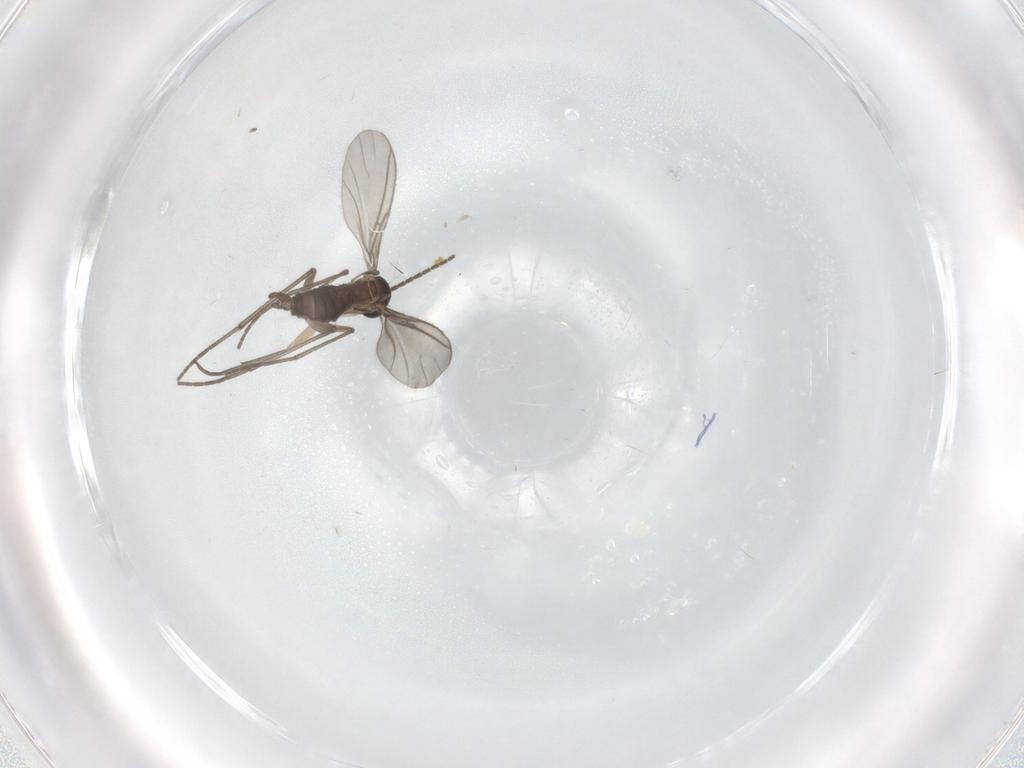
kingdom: Animalia
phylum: Arthropoda
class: Insecta
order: Diptera
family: Sciaridae
